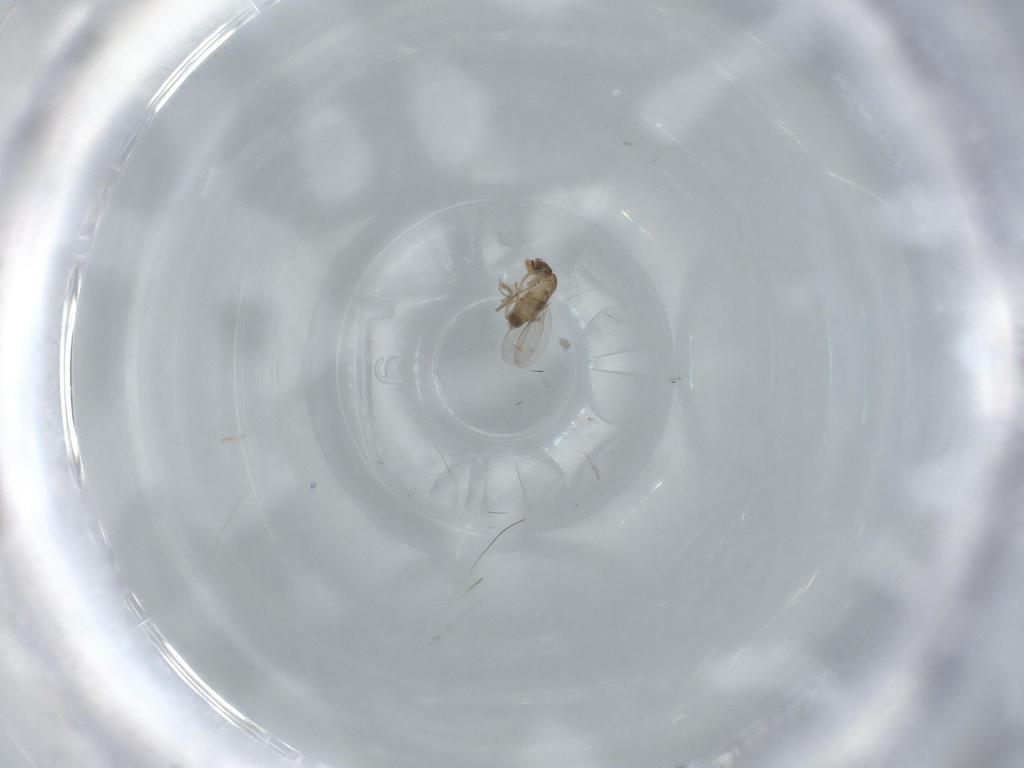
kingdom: Animalia
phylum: Arthropoda
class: Insecta
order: Diptera
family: Phoridae
